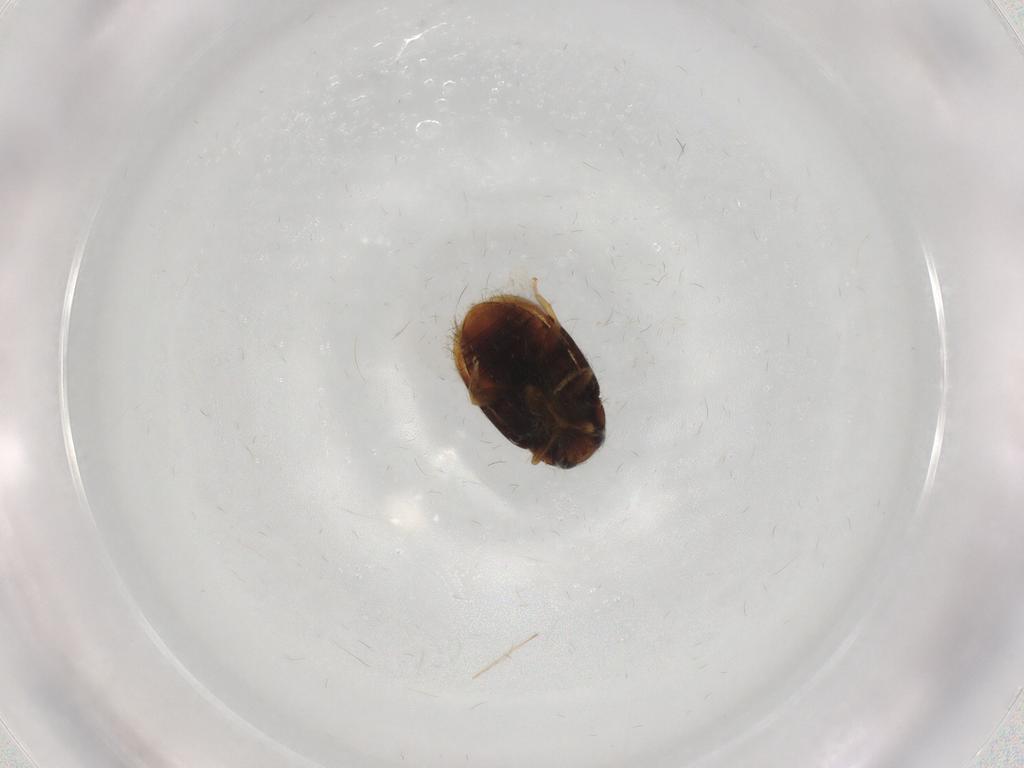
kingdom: Animalia
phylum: Arthropoda
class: Insecta
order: Coleoptera
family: Coccinellidae
